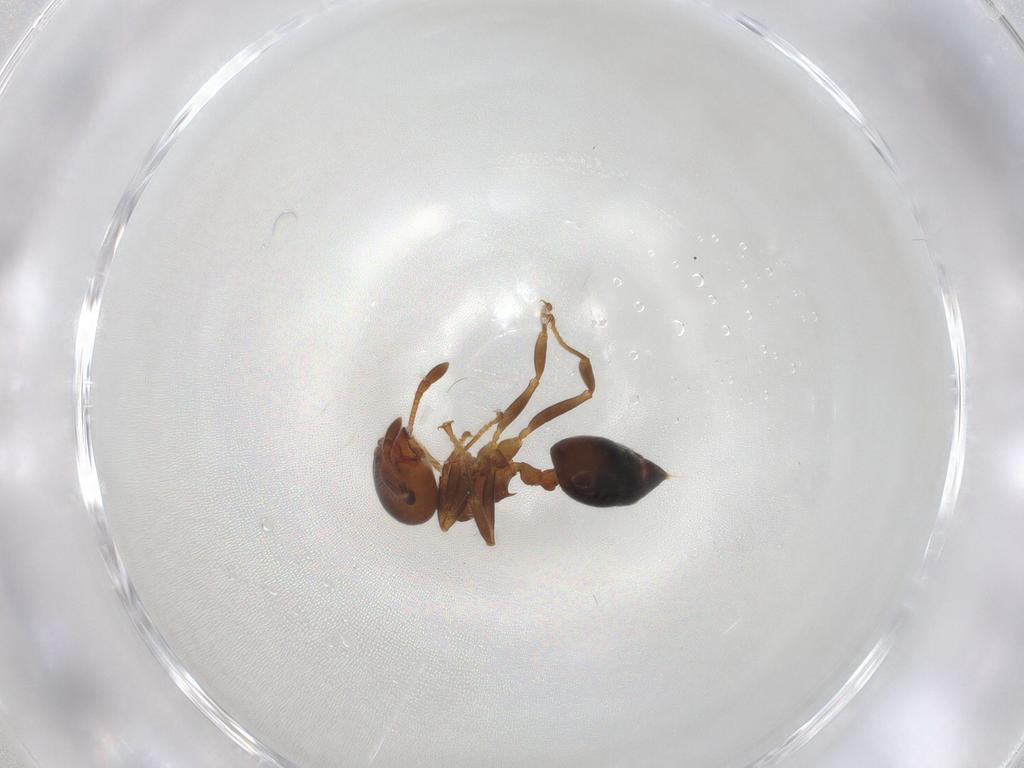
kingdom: Animalia
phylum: Arthropoda
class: Insecta
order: Hymenoptera
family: Formicidae
